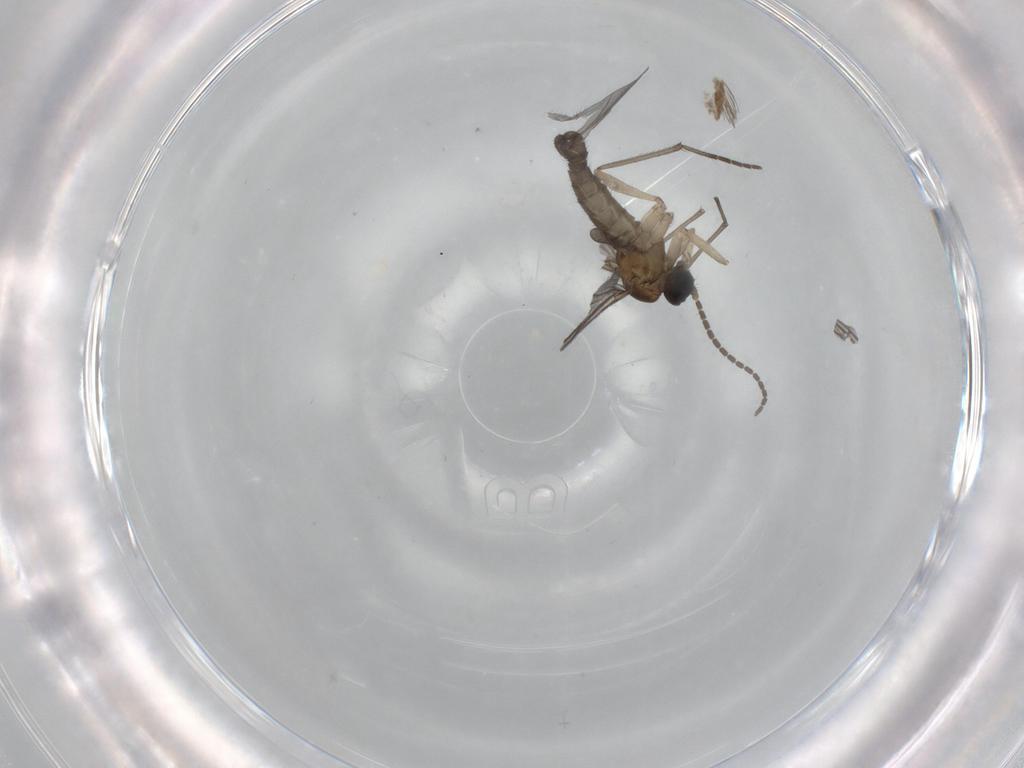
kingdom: Animalia
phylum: Arthropoda
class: Insecta
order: Diptera
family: Sciaridae
